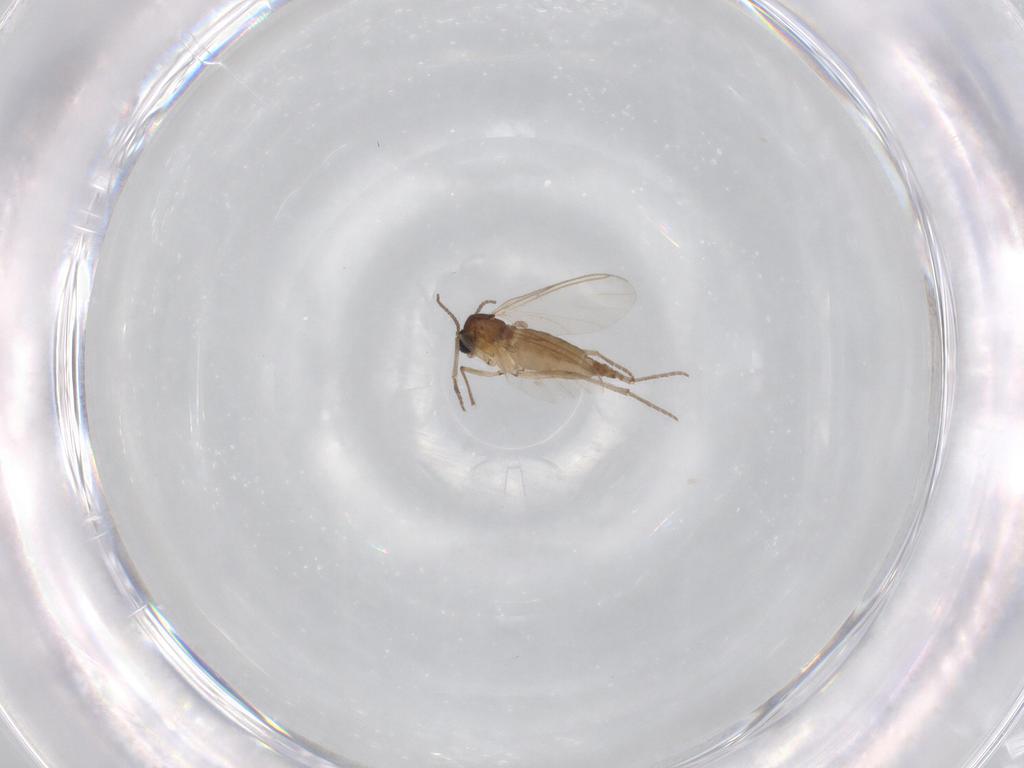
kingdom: Animalia
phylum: Arthropoda
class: Insecta
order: Diptera
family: Sciaridae
